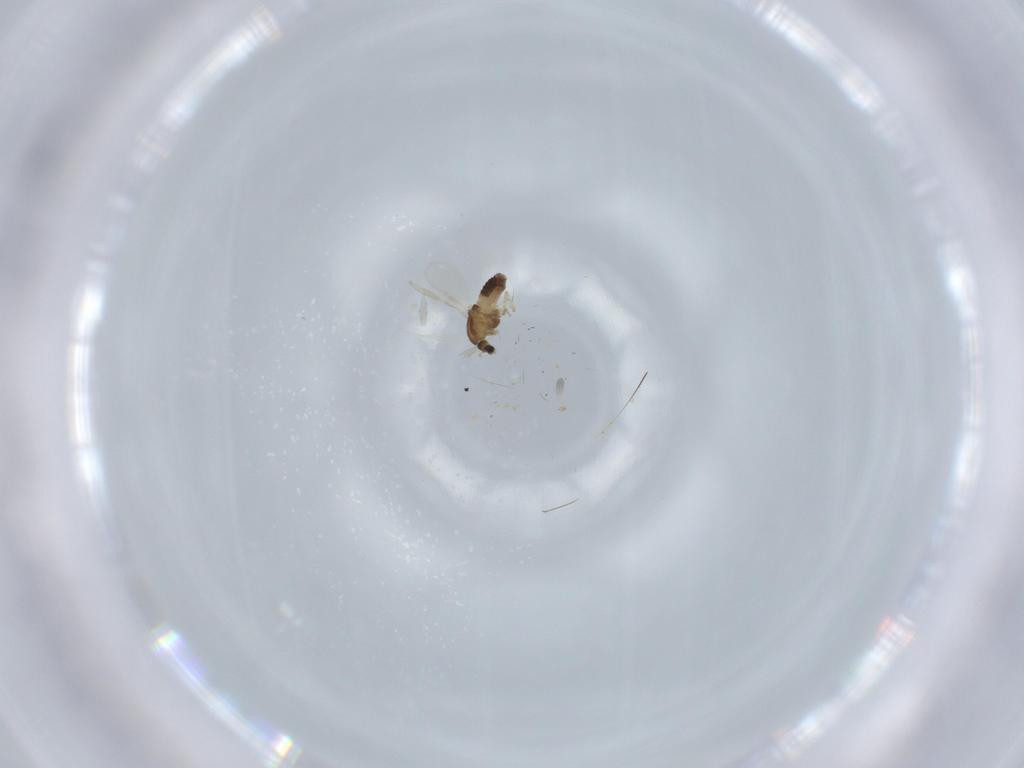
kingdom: Animalia
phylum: Arthropoda
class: Insecta
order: Diptera
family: Chironomidae
